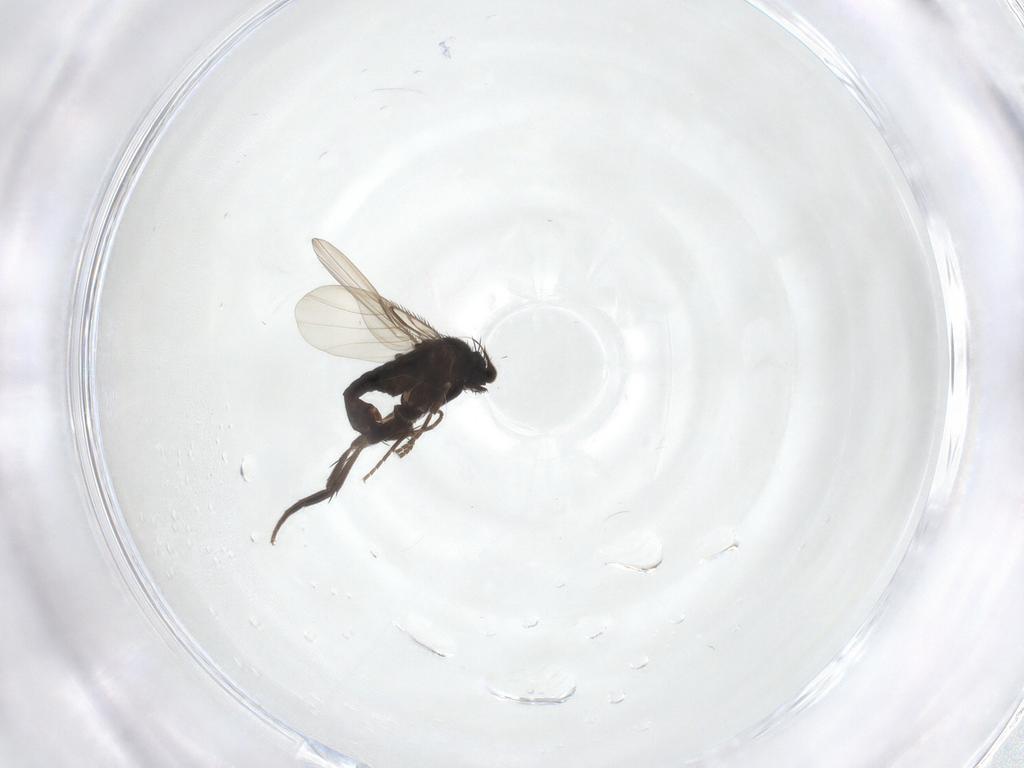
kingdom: Animalia
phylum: Arthropoda
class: Insecta
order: Diptera
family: Phoridae
